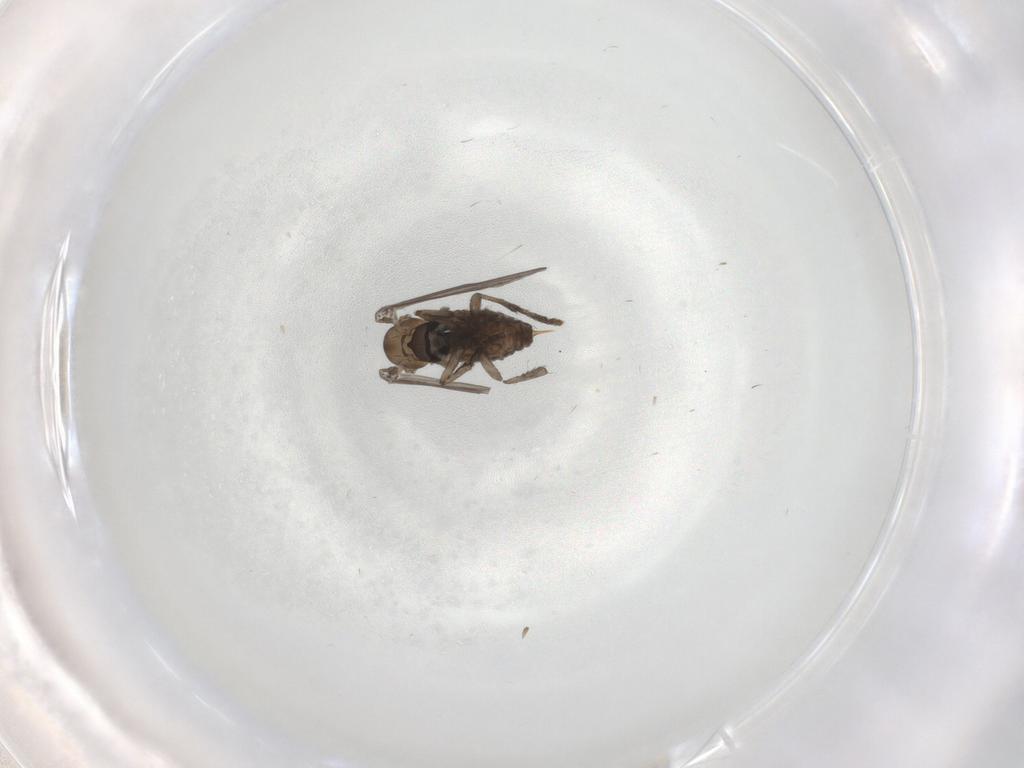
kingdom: Animalia
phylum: Arthropoda
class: Insecta
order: Diptera
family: Psychodidae
